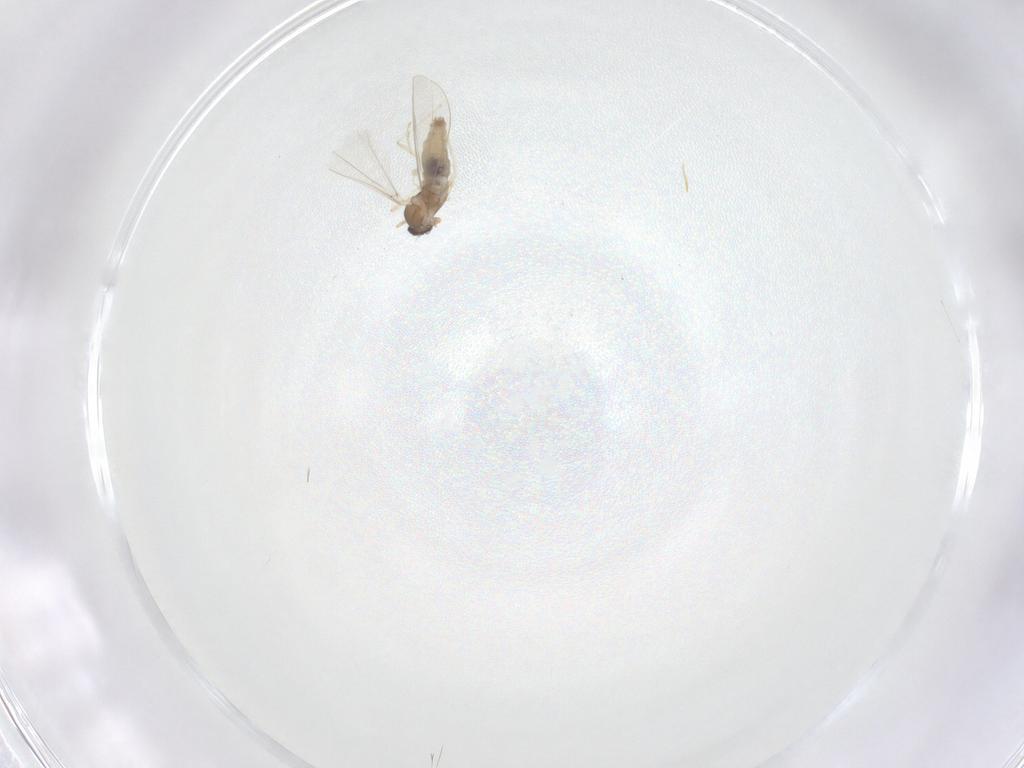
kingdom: Animalia
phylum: Arthropoda
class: Insecta
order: Diptera
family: Cecidomyiidae
